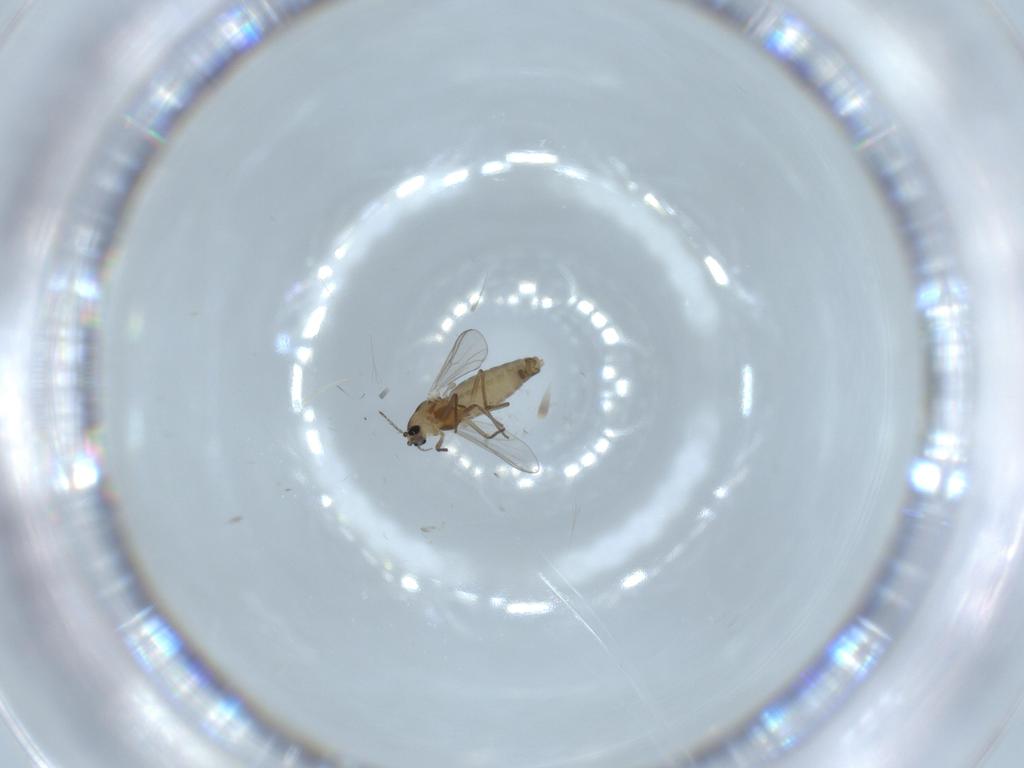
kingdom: Animalia
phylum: Arthropoda
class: Insecta
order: Diptera
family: Chironomidae
